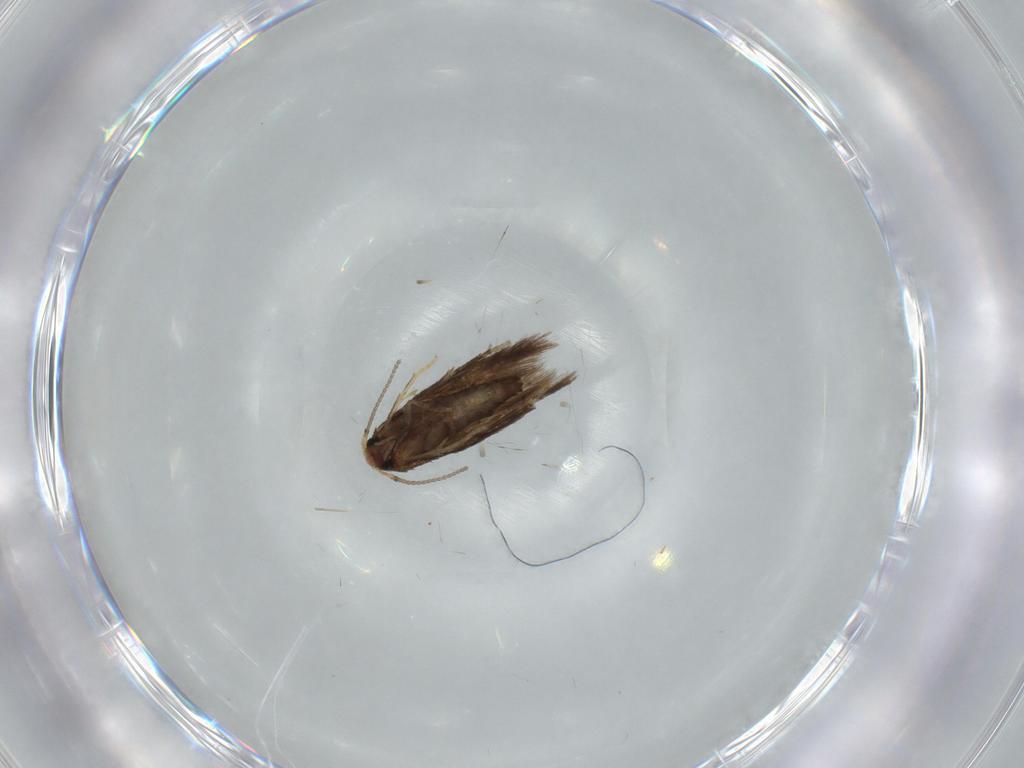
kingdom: Animalia
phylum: Arthropoda
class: Insecta
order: Lepidoptera
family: Nepticulidae
